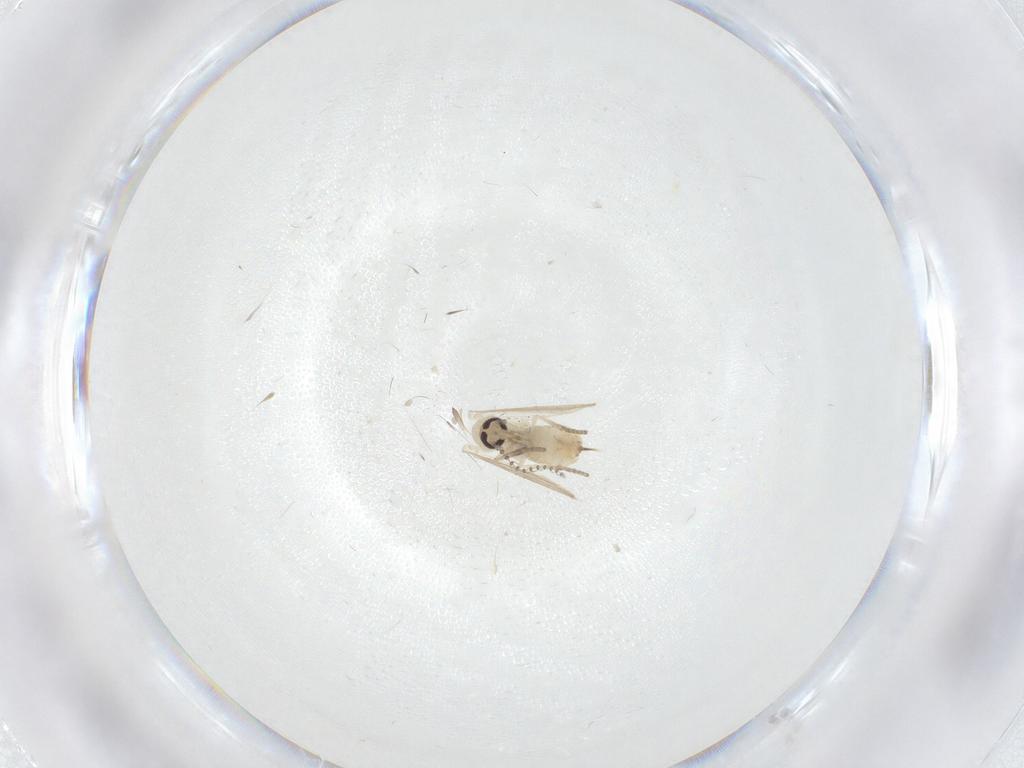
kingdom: Animalia
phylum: Arthropoda
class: Insecta
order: Diptera
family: Psychodidae
